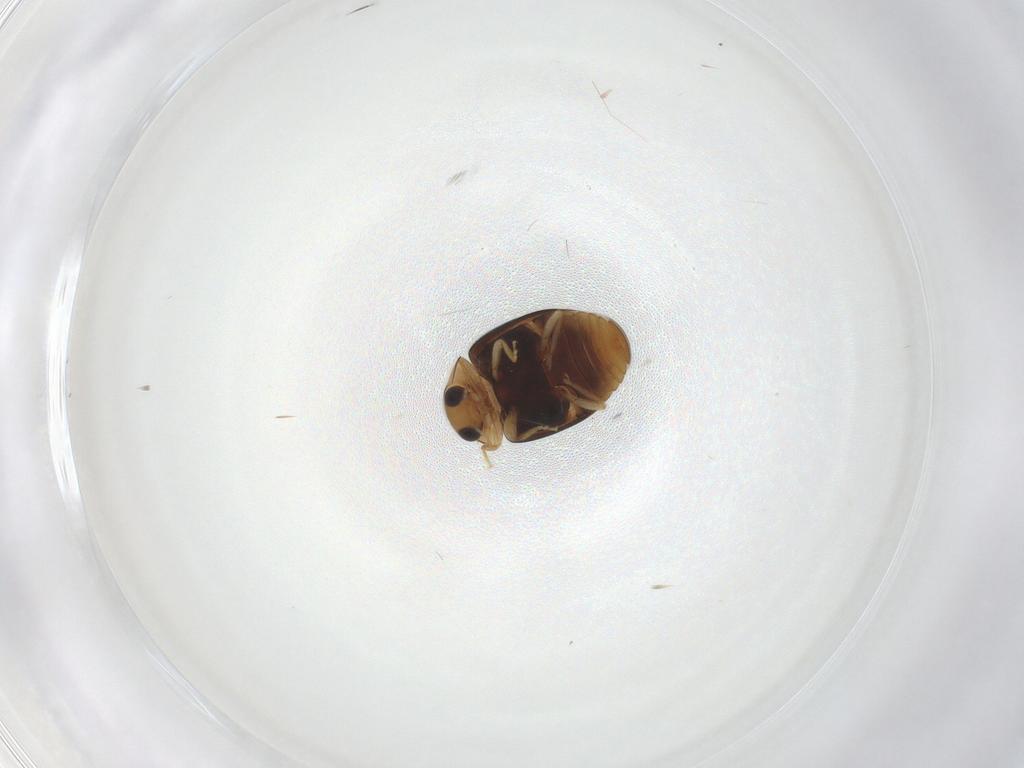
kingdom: Animalia
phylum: Arthropoda
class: Insecta
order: Coleoptera
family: Coccinellidae
